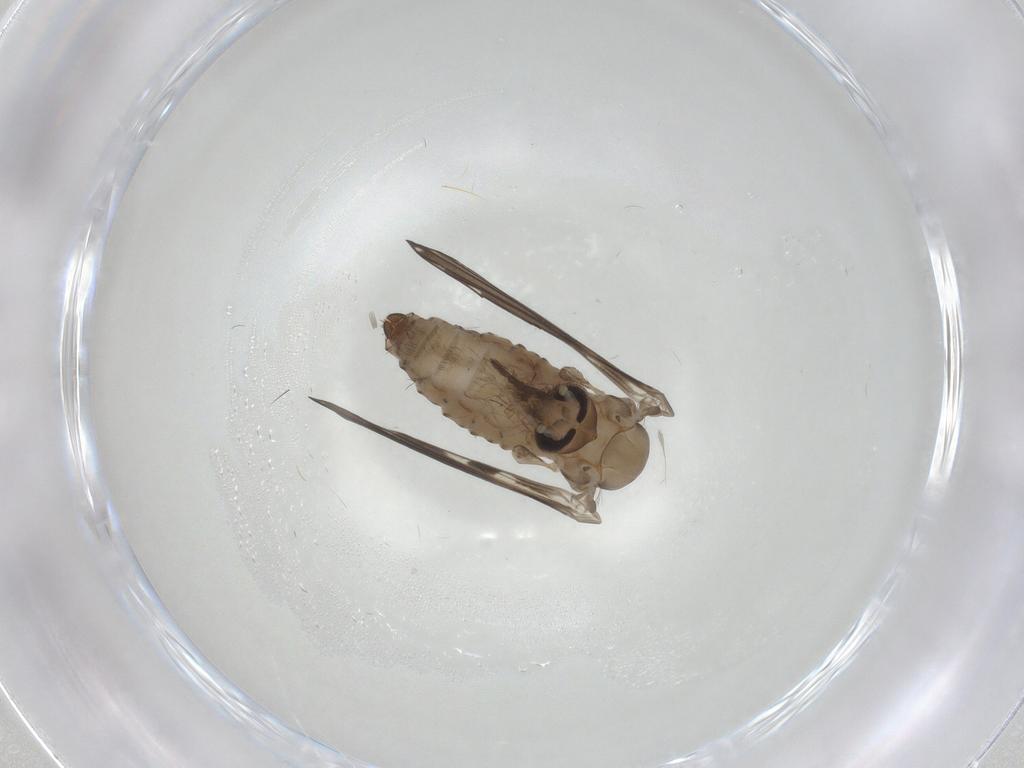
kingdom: Animalia
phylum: Arthropoda
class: Insecta
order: Diptera
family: Psychodidae
